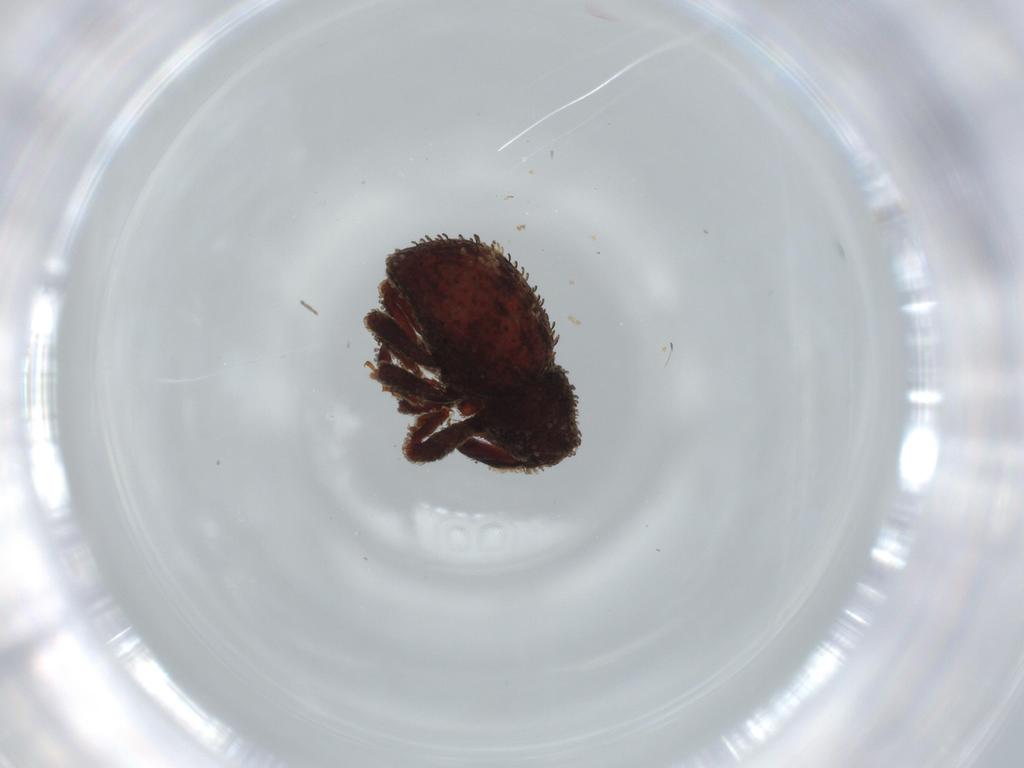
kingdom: Animalia
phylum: Arthropoda
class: Insecta
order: Coleoptera
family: Curculionidae
